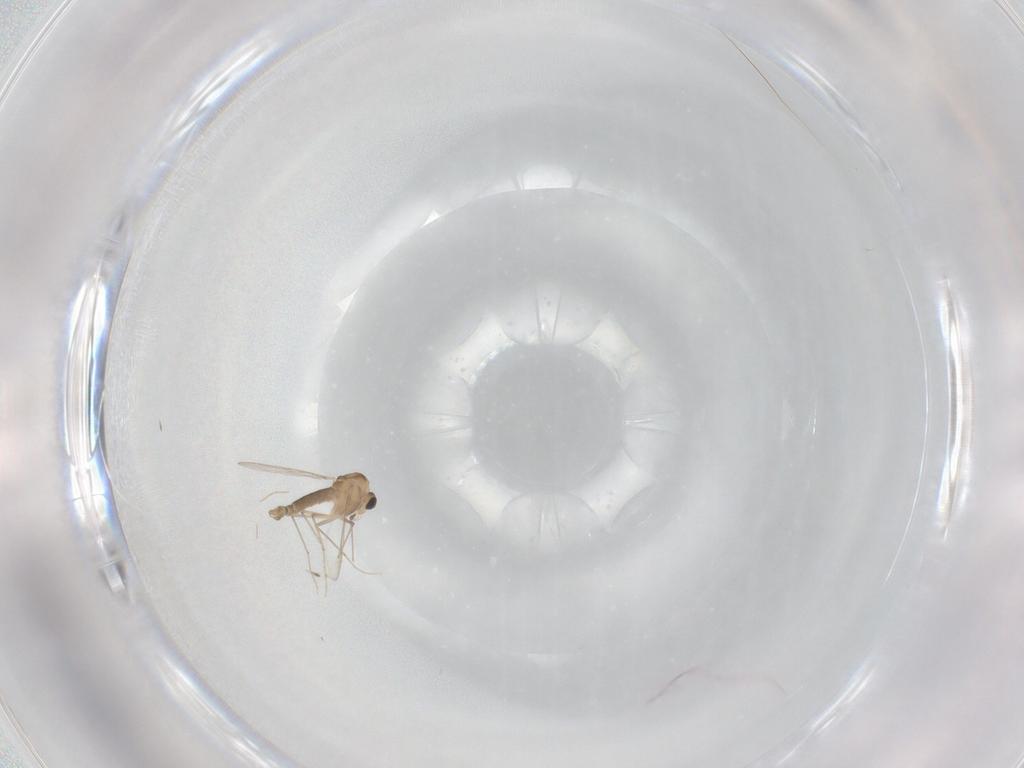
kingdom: Animalia
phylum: Arthropoda
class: Insecta
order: Diptera
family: Chironomidae
